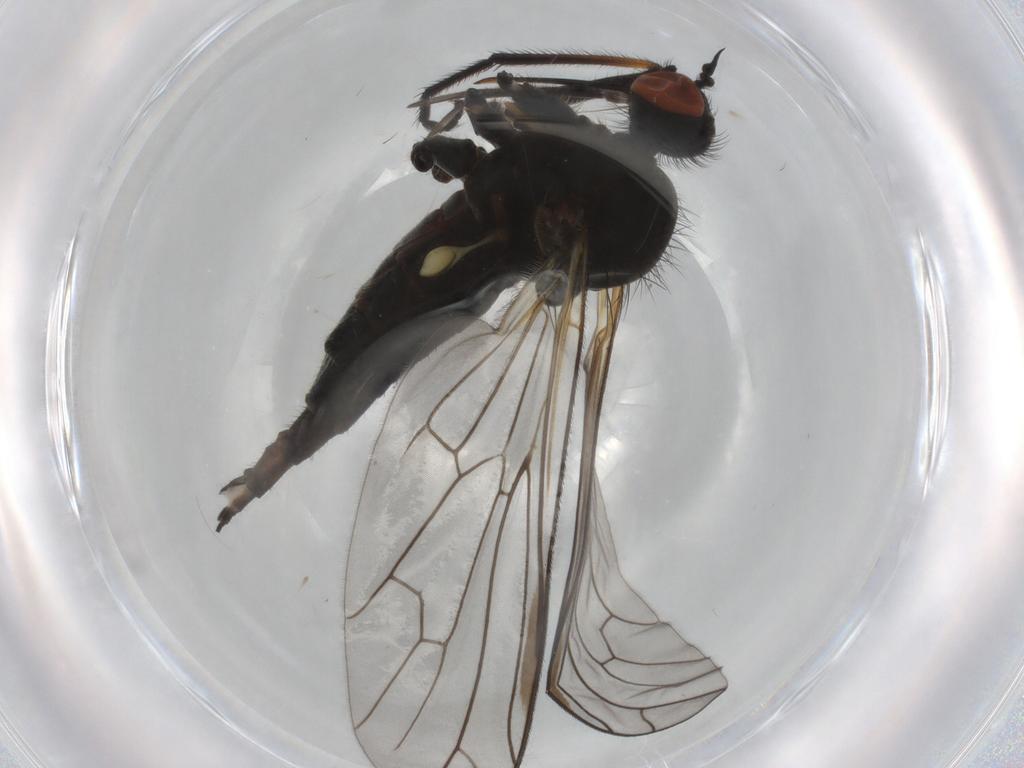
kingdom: Animalia
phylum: Arthropoda
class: Insecta
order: Diptera
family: Empididae
